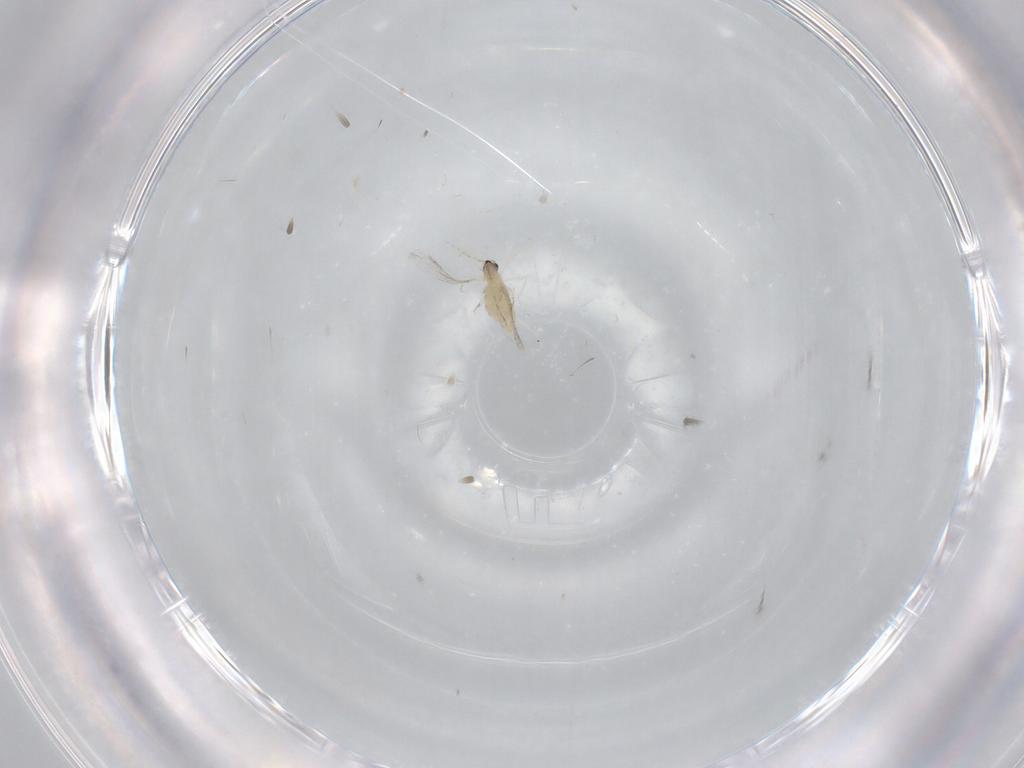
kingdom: Animalia
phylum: Arthropoda
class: Insecta
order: Diptera
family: Cecidomyiidae
